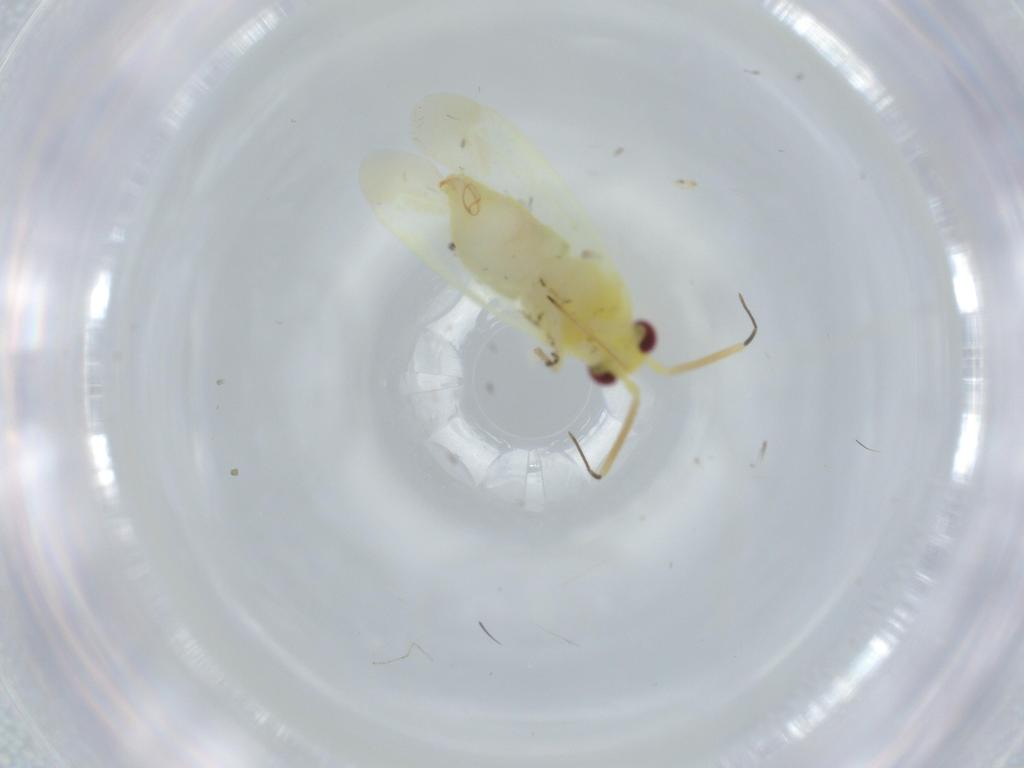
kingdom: Animalia
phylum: Arthropoda
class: Insecta
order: Hemiptera
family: Miridae
